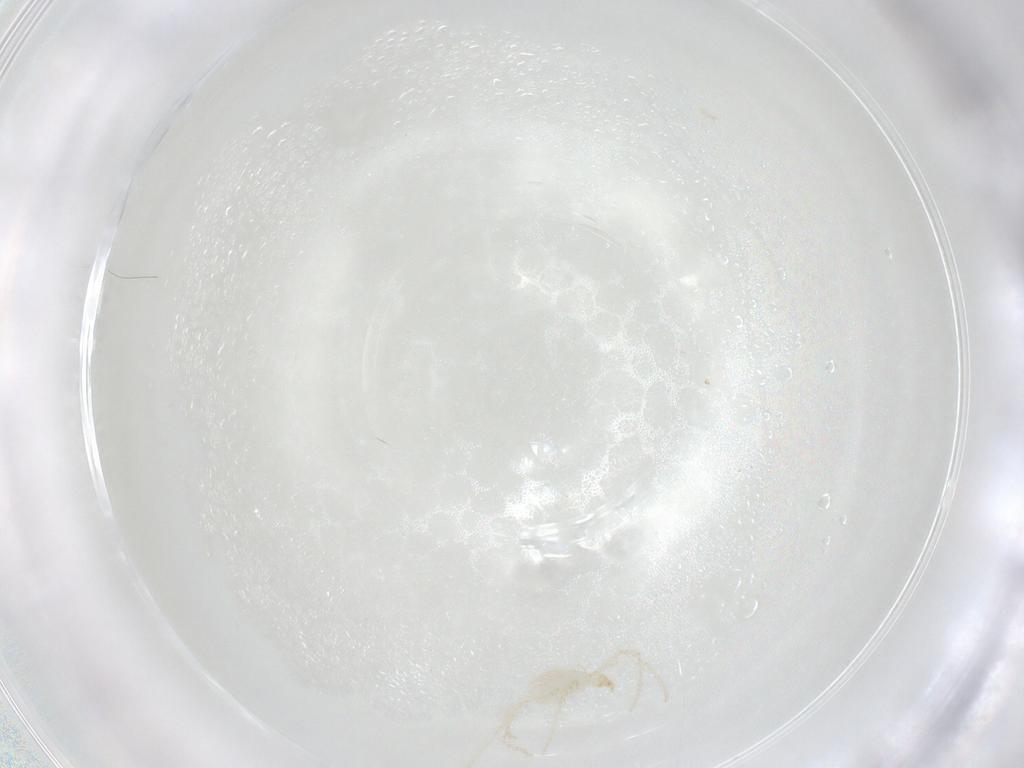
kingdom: Animalia
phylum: Arthropoda
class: Arachnida
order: Trombidiformes
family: Erythraeidae
